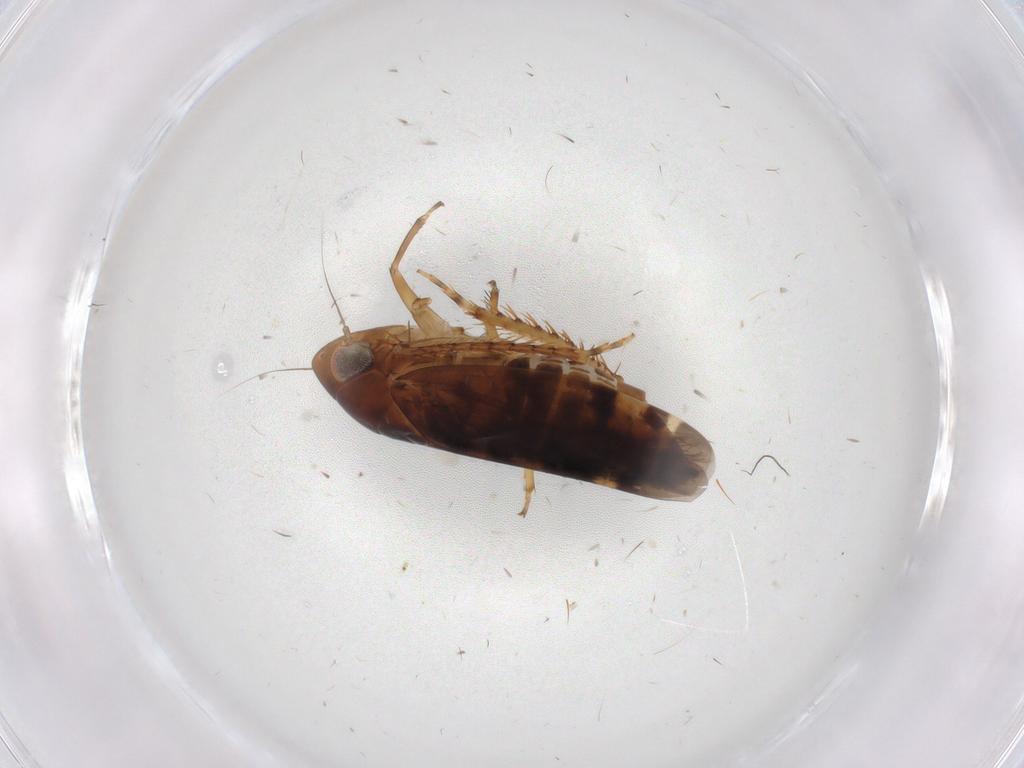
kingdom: Animalia
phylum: Arthropoda
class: Insecta
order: Hemiptera
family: Cicadellidae
